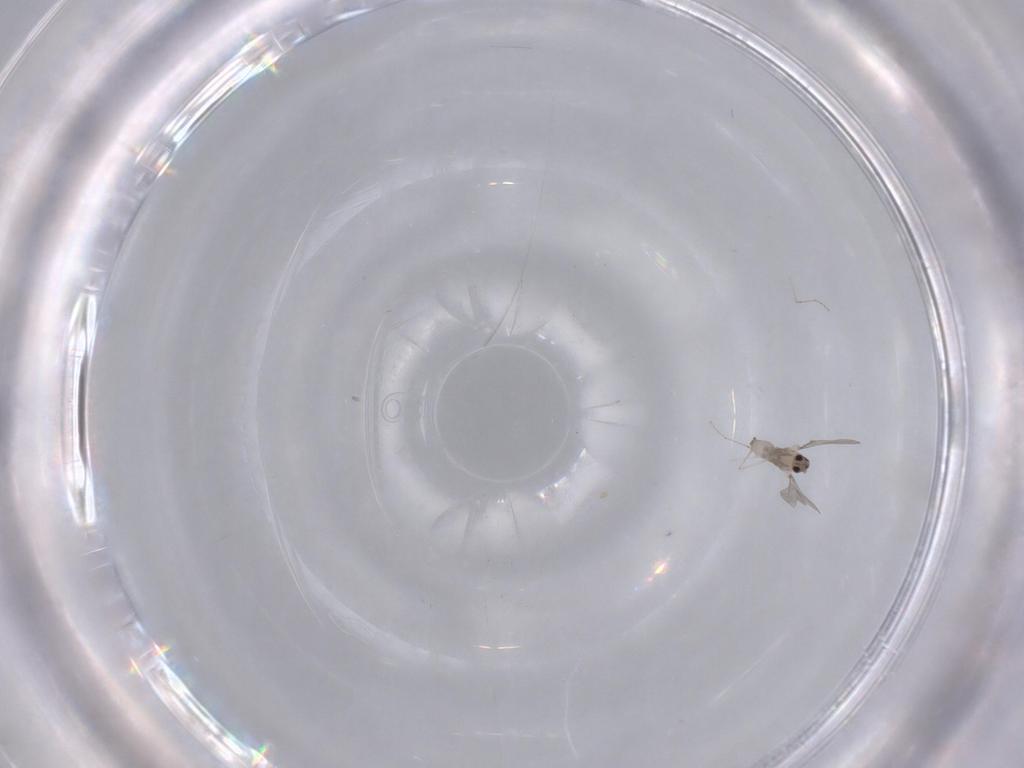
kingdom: Animalia
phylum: Arthropoda
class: Insecta
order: Diptera
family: Cecidomyiidae
